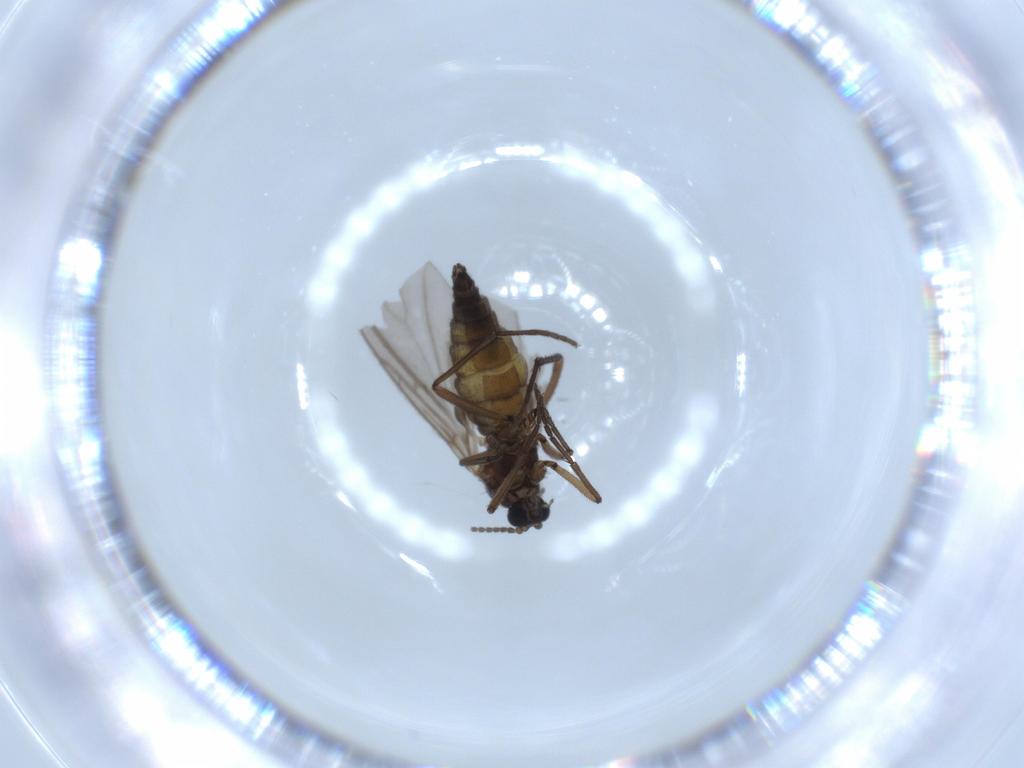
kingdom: Animalia
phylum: Arthropoda
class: Insecta
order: Diptera
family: Sciaridae
